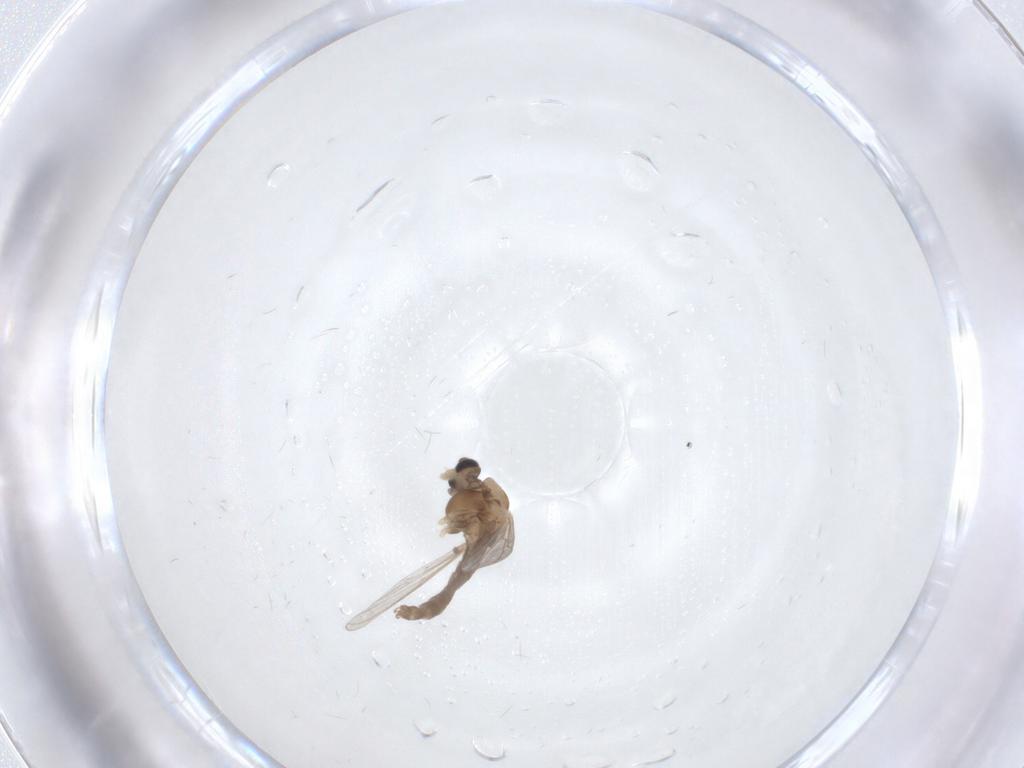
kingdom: Animalia
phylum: Arthropoda
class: Insecta
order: Diptera
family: Chironomidae
